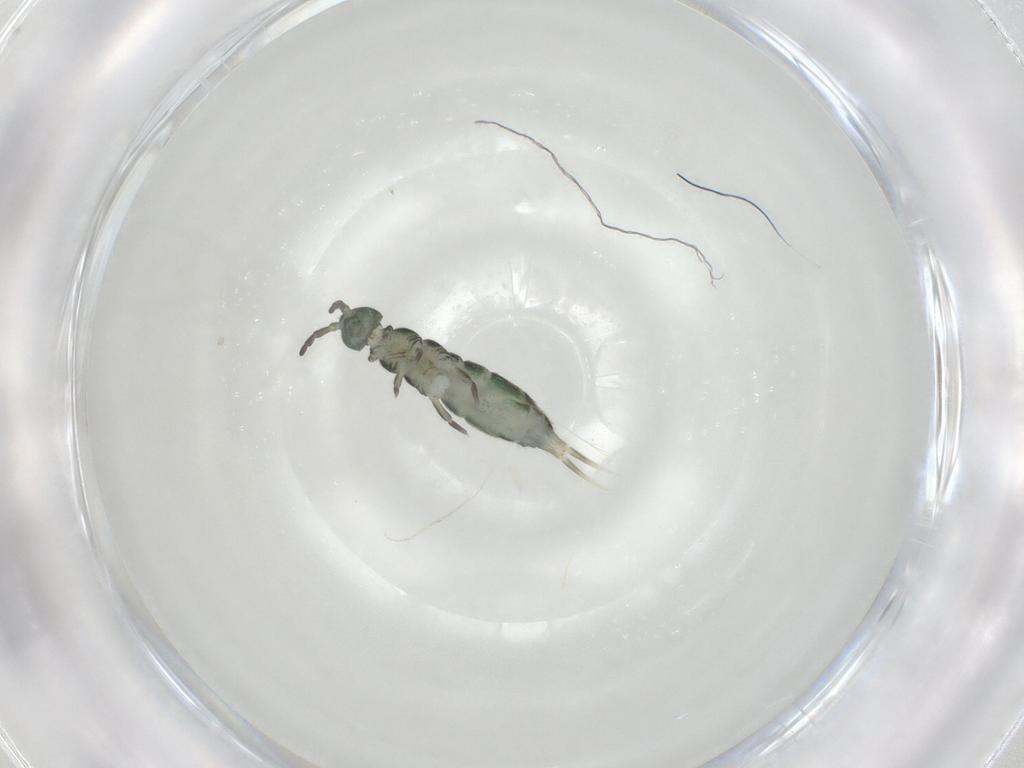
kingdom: Animalia
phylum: Arthropoda
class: Collembola
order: Entomobryomorpha
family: Isotomidae
